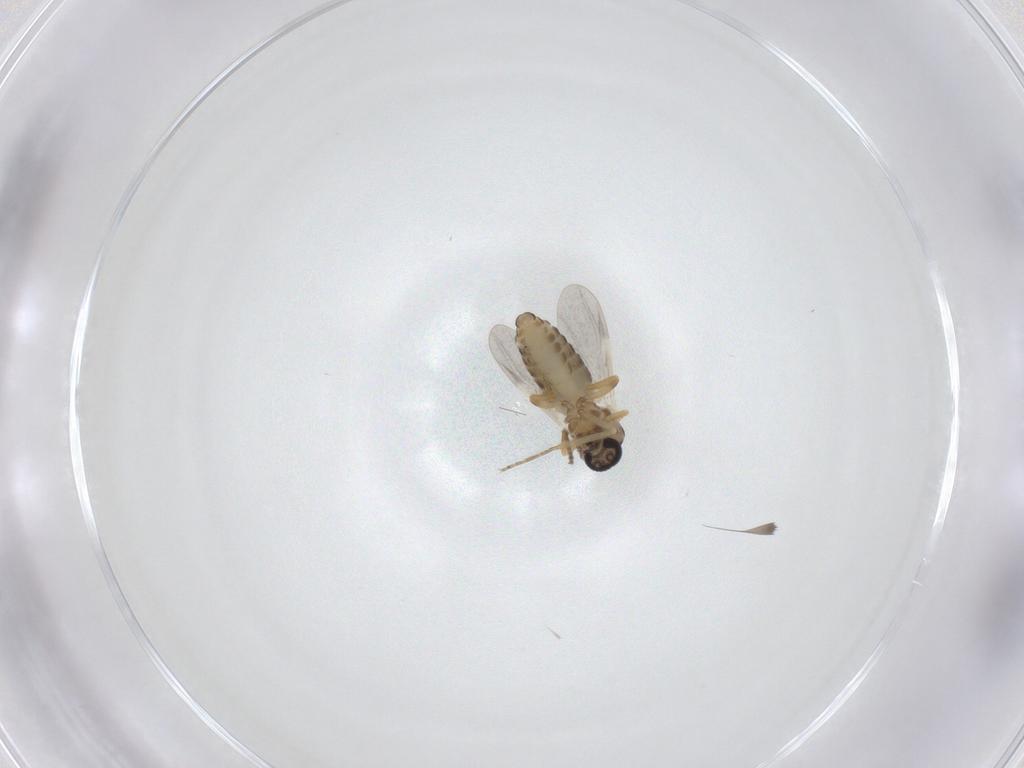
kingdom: Animalia
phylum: Arthropoda
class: Insecta
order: Diptera
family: Ceratopogonidae
